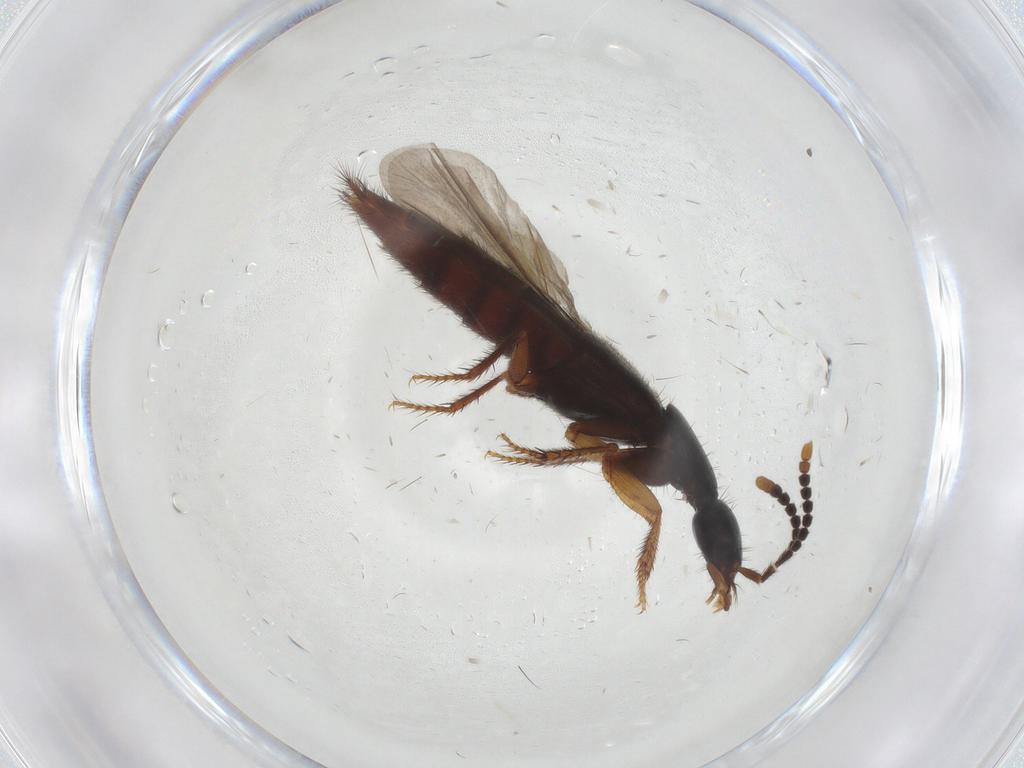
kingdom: Animalia
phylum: Arthropoda
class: Insecta
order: Coleoptera
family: Staphylinidae
